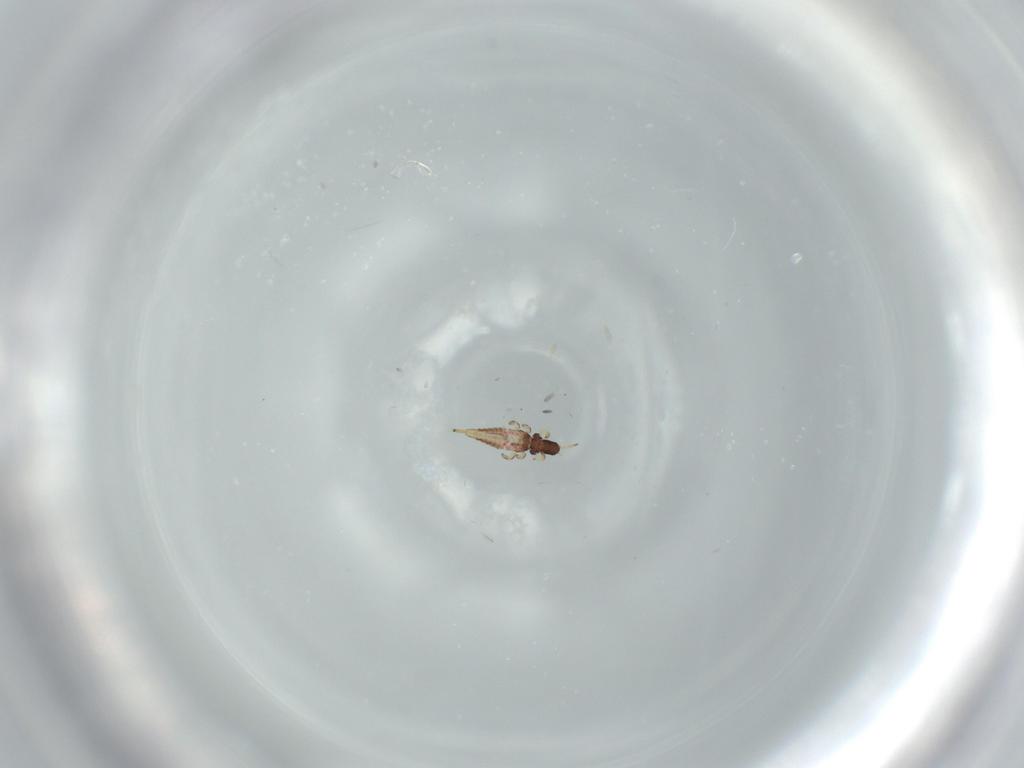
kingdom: Animalia
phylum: Arthropoda
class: Insecta
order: Thysanoptera
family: Phlaeothripidae
